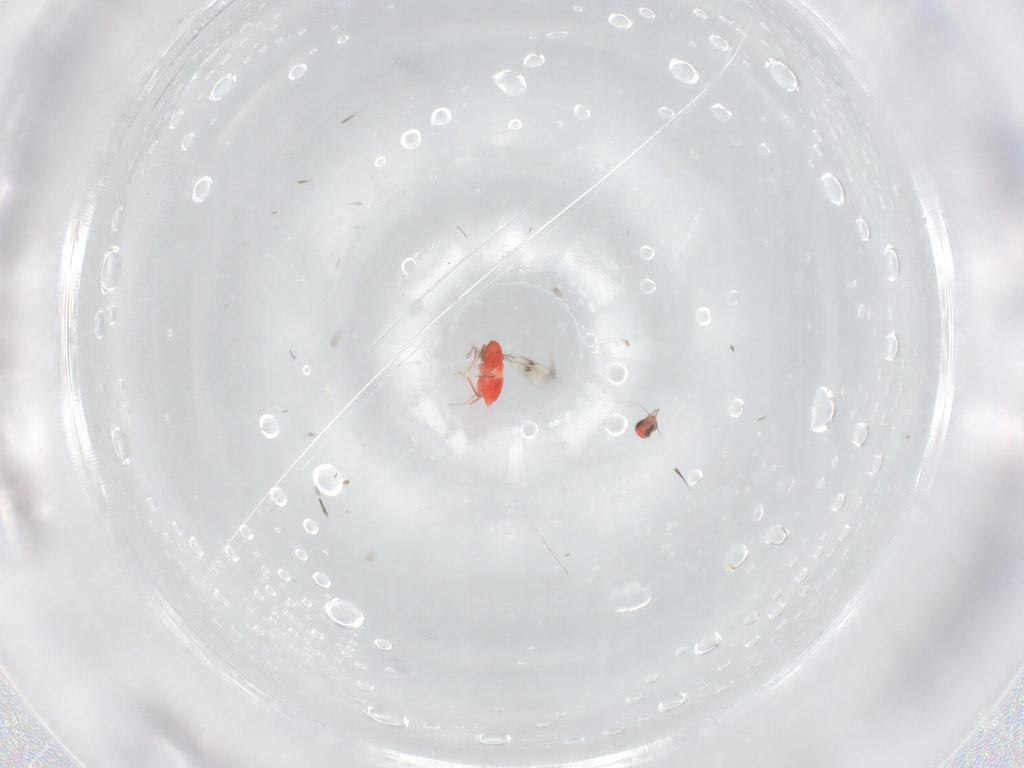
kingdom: Animalia
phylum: Arthropoda
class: Insecta
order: Hymenoptera
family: Trichogrammatidae
